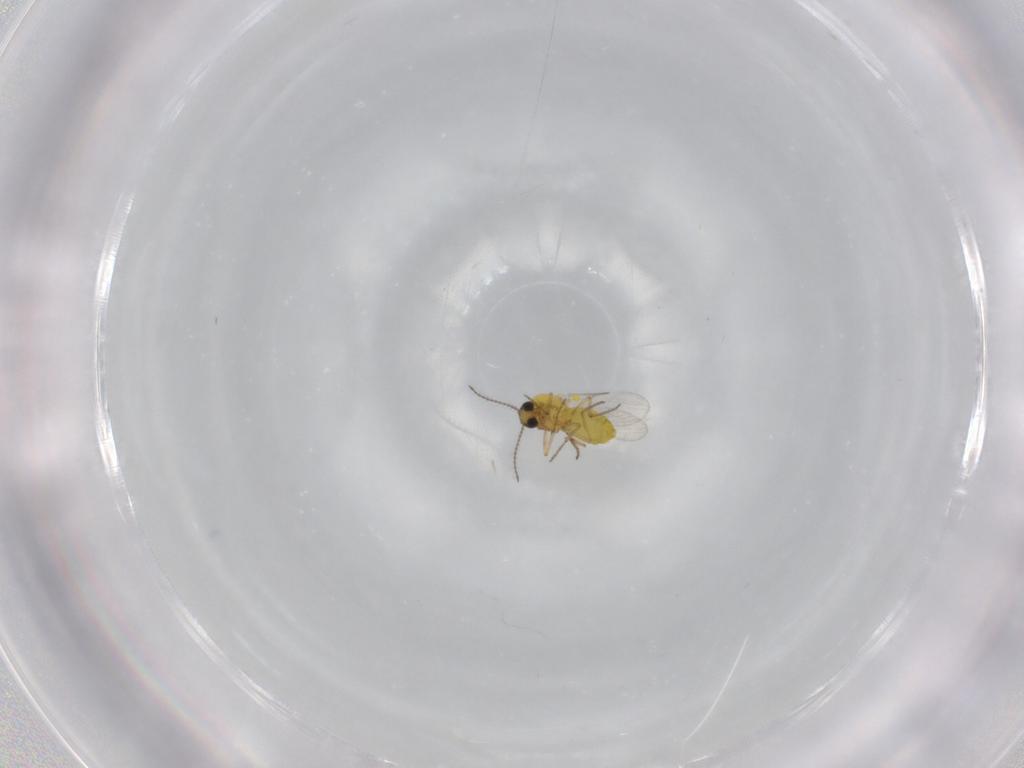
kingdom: Animalia
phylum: Arthropoda
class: Insecta
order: Diptera
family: Ceratopogonidae
